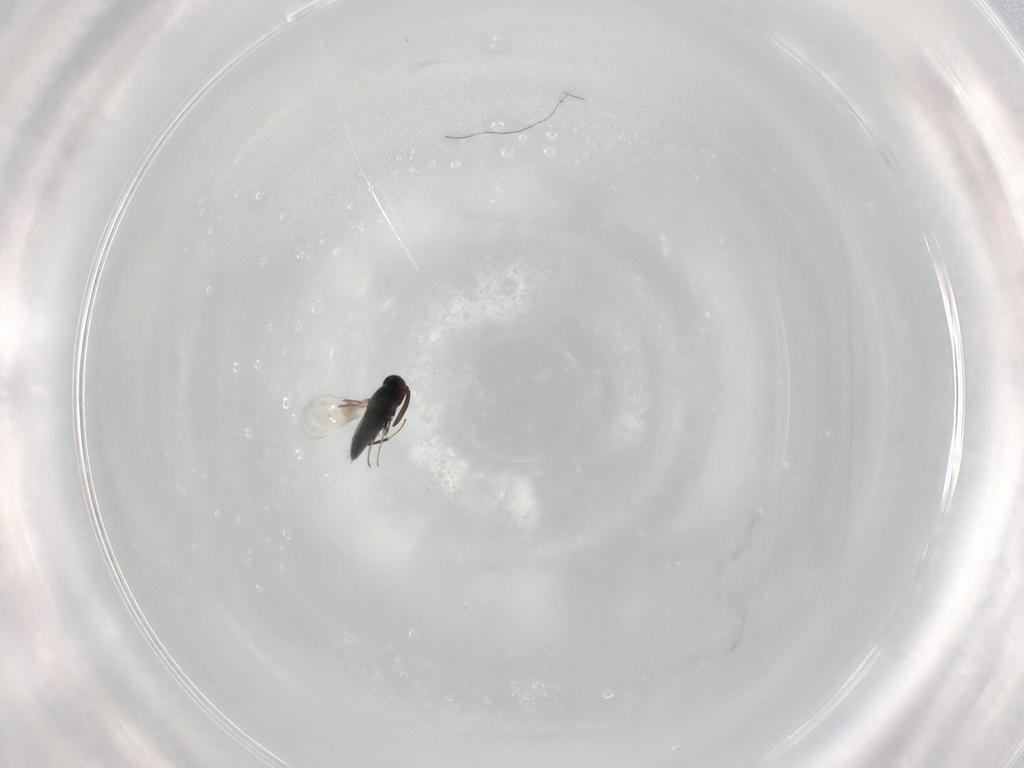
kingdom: Animalia
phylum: Arthropoda
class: Insecta
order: Hymenoptera
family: Signiphoridae
